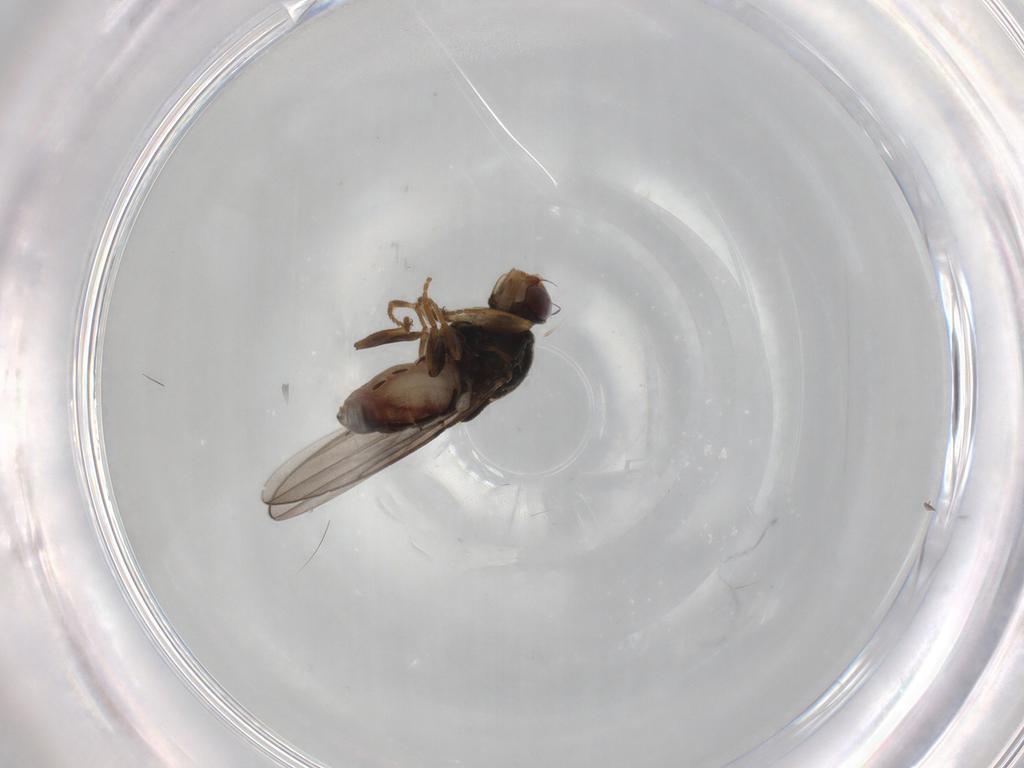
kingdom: Animalia
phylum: Arthropoda
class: Insecta
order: Diptera
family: Chloropidae
